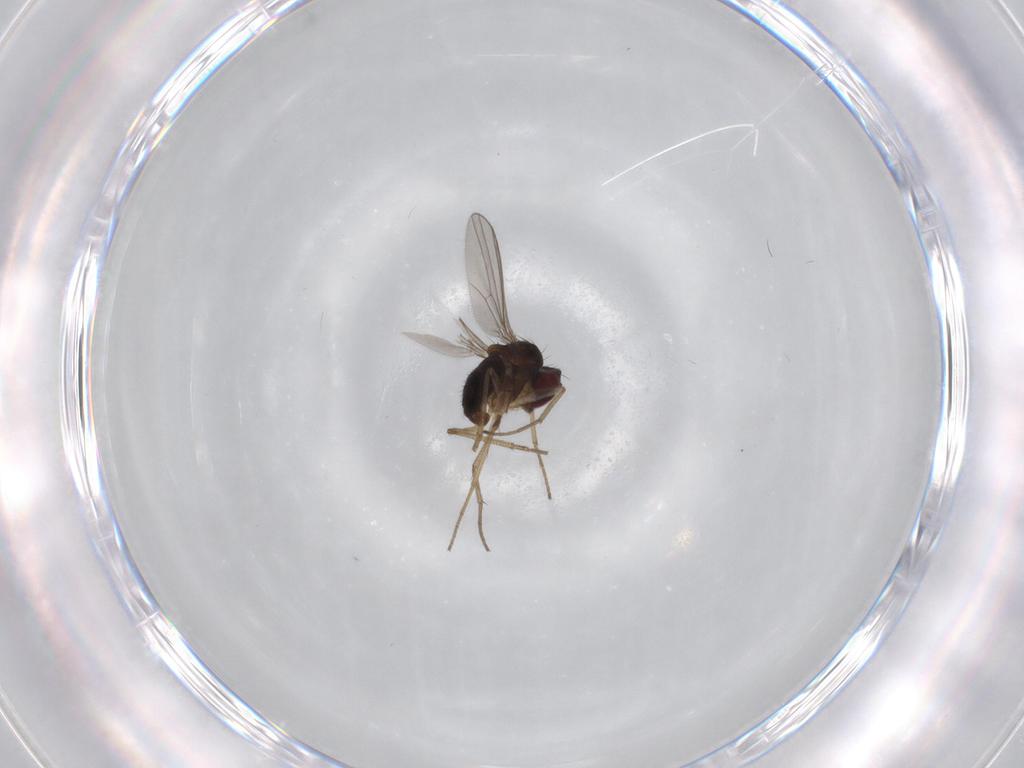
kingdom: Animalia
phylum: Arthropoda
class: Insecta
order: Diptera
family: Dolichopodidae
